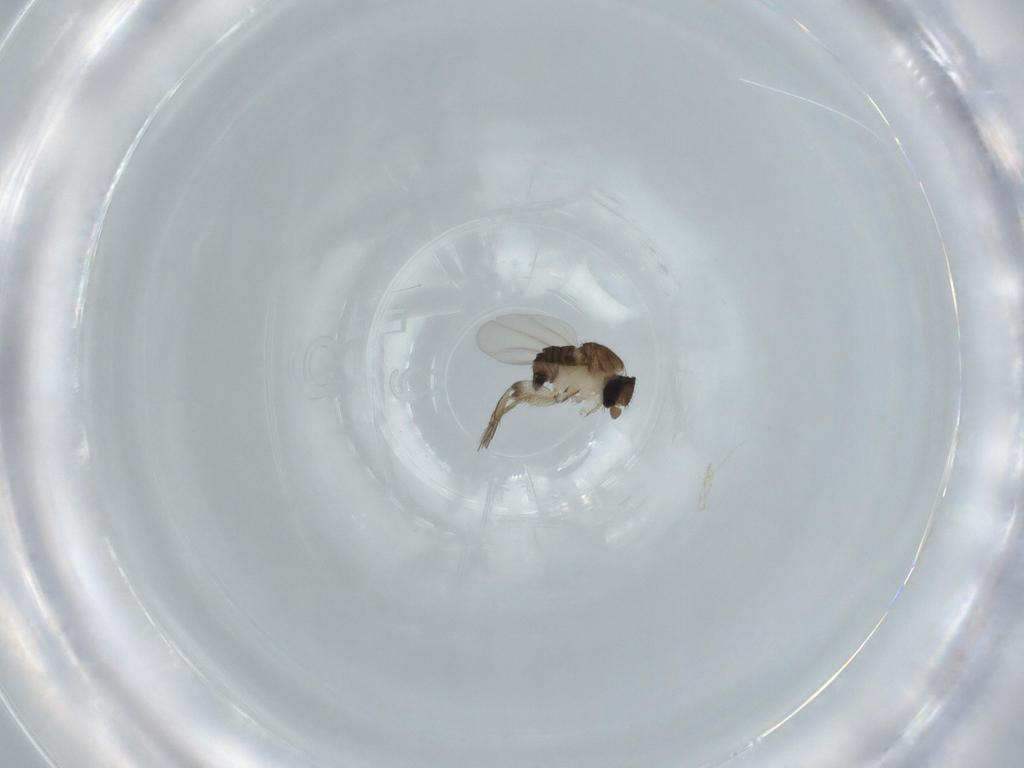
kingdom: Animalia
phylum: Arthropoda
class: Insecta
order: Diptera
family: Phoridae
